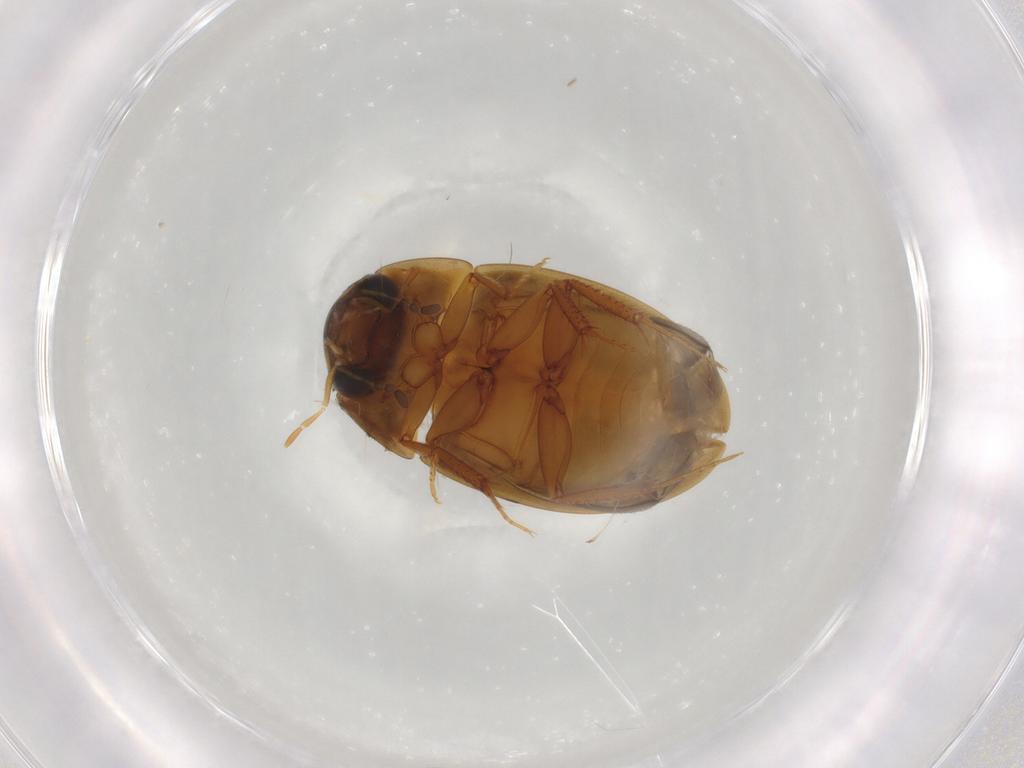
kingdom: Animalia
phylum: Arthropoda
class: Insecta
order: Coleoptera
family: Hydrophilidae
